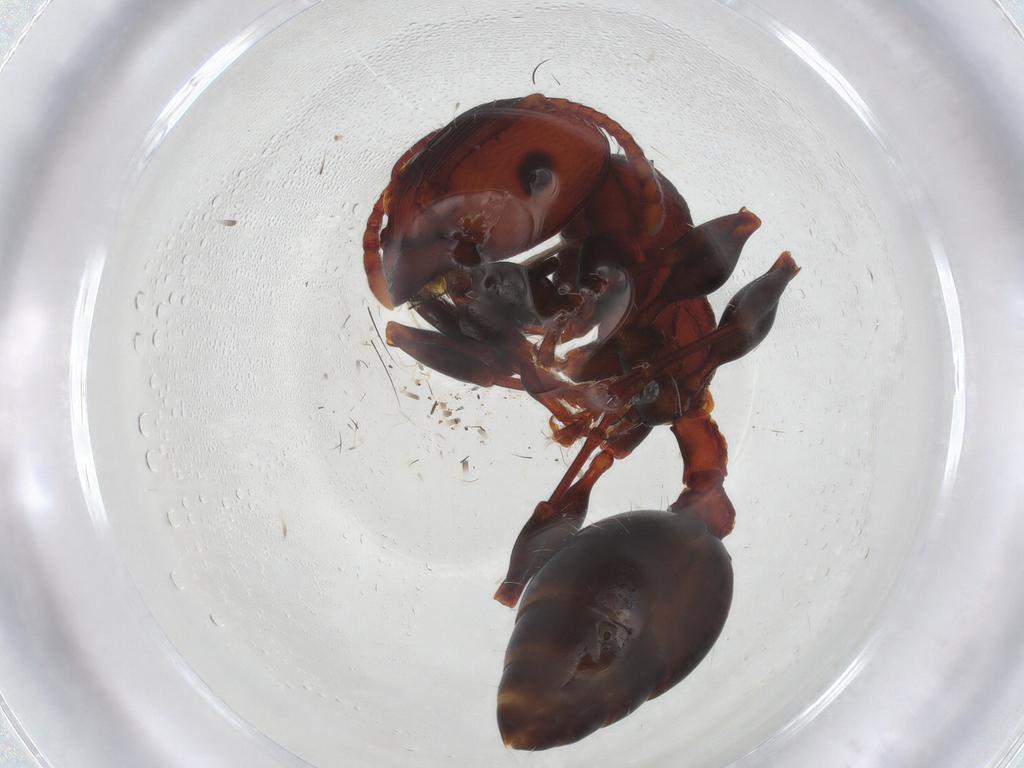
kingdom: Animalia
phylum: Arthropoda
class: Insecta
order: Hymenoptera
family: Formicidae
